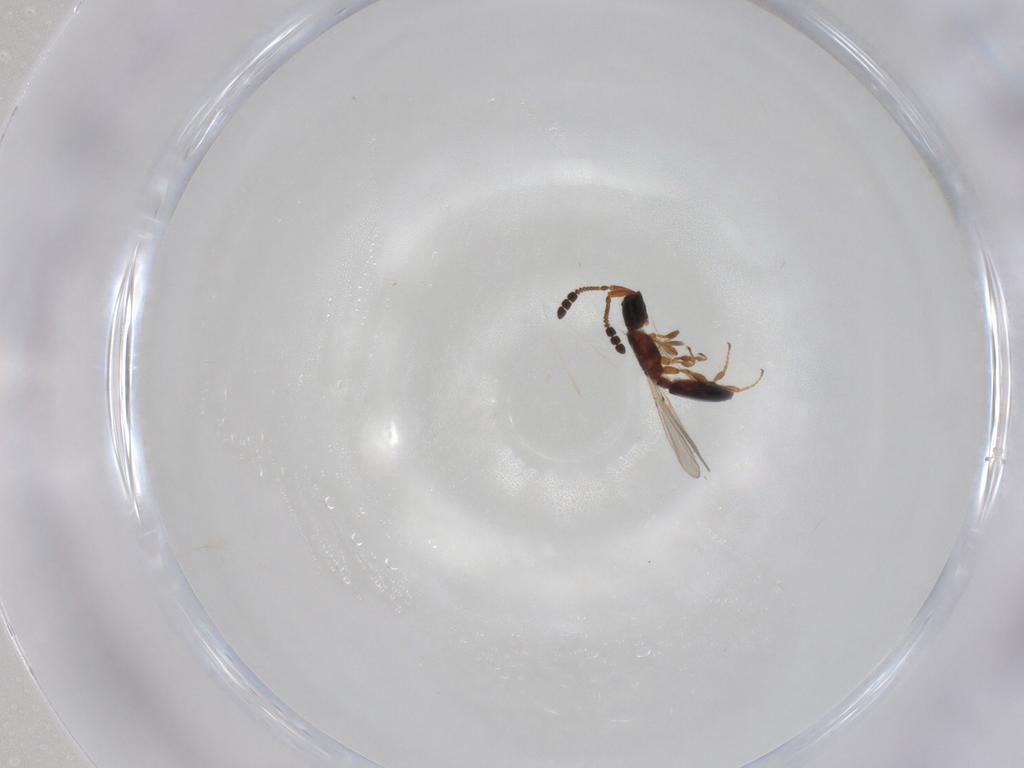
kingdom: Animalia
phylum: Arthropoda
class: Insecta
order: Hymenoptera
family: Diapriidae
